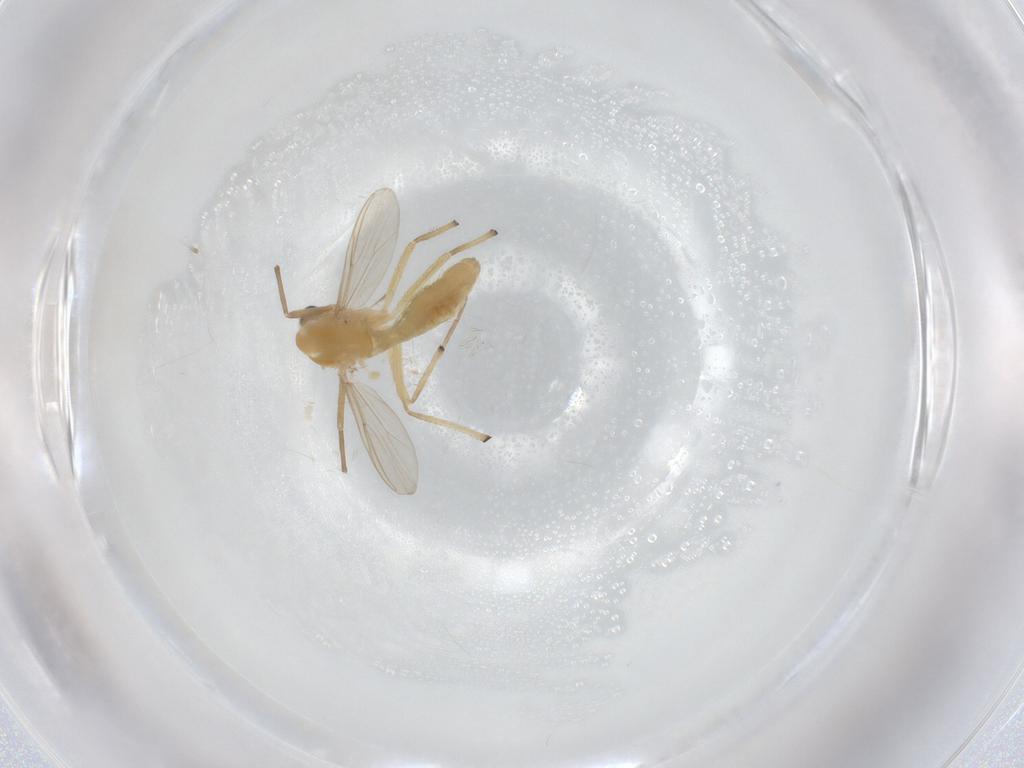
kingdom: Animalia
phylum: Arthropoda
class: Insecta
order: Diptera
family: Chironomidae
